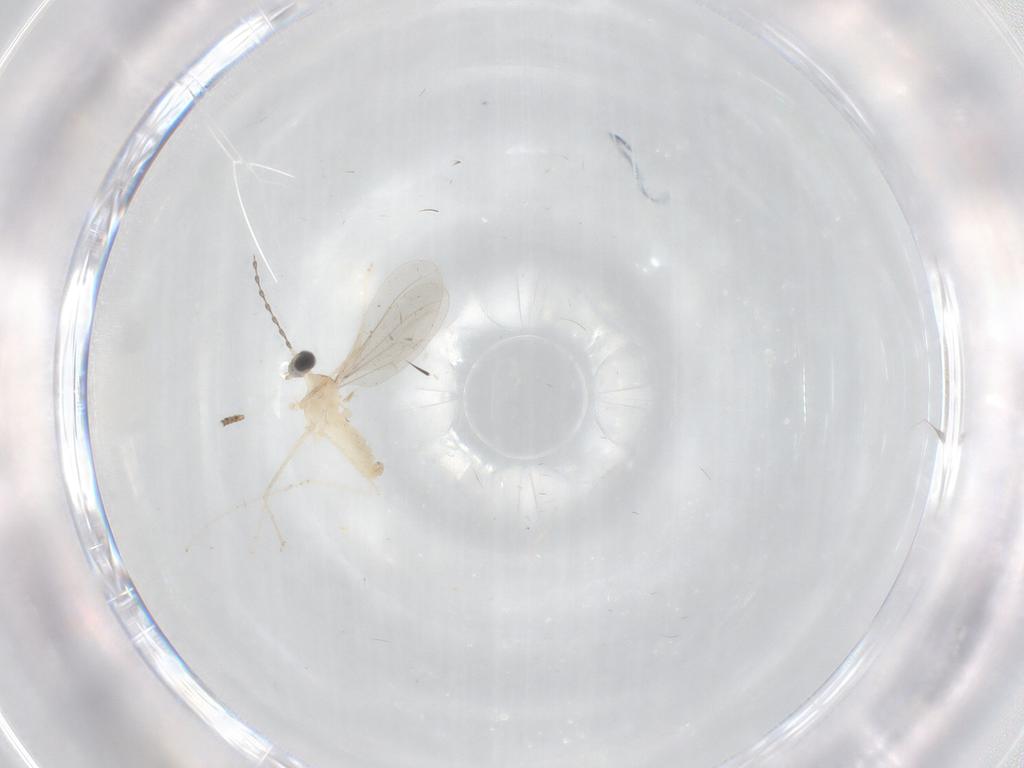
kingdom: Animalia
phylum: Arthropoda
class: Insecta
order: Diptera
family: Cecidomyiidae
